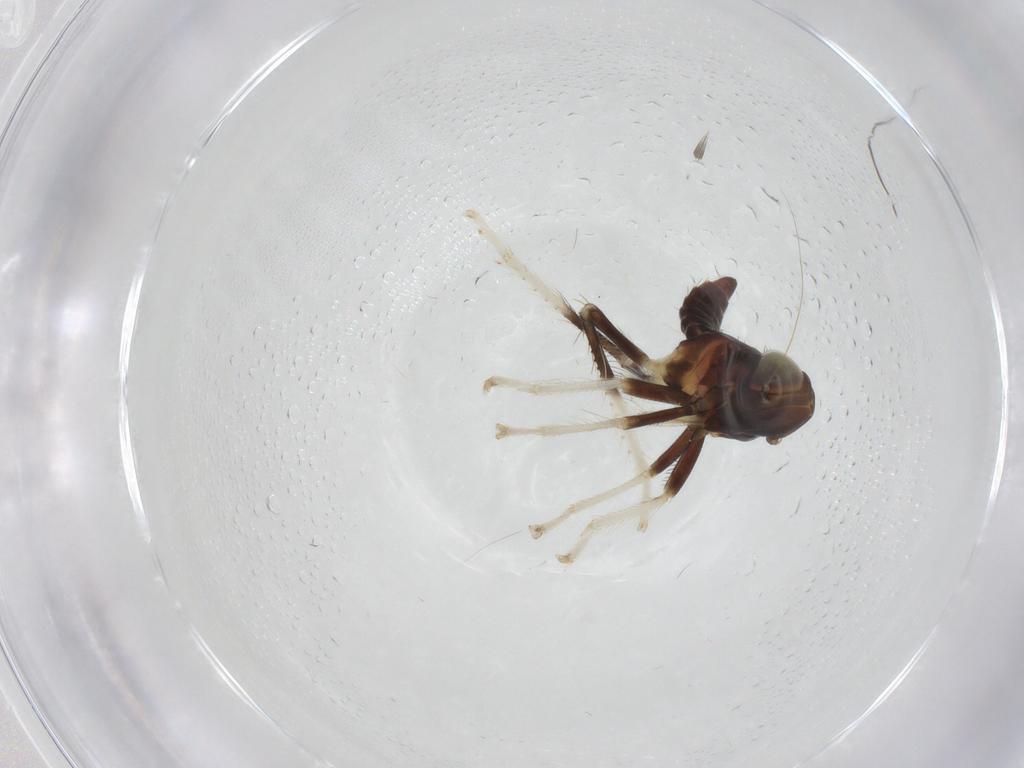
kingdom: Animalia
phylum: Arthropoda
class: Insecta
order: Hemiptera
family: Cicadellidae
